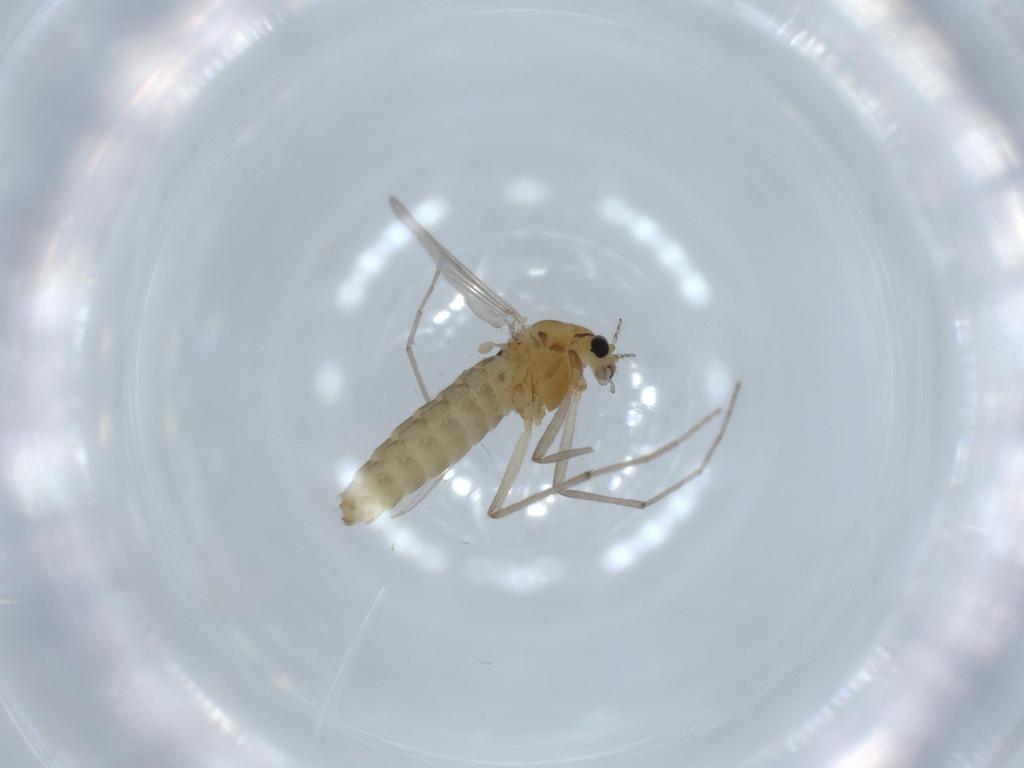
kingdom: Animalia
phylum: Arthropoda
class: Insecta
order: Diptera
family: Chironomidae
